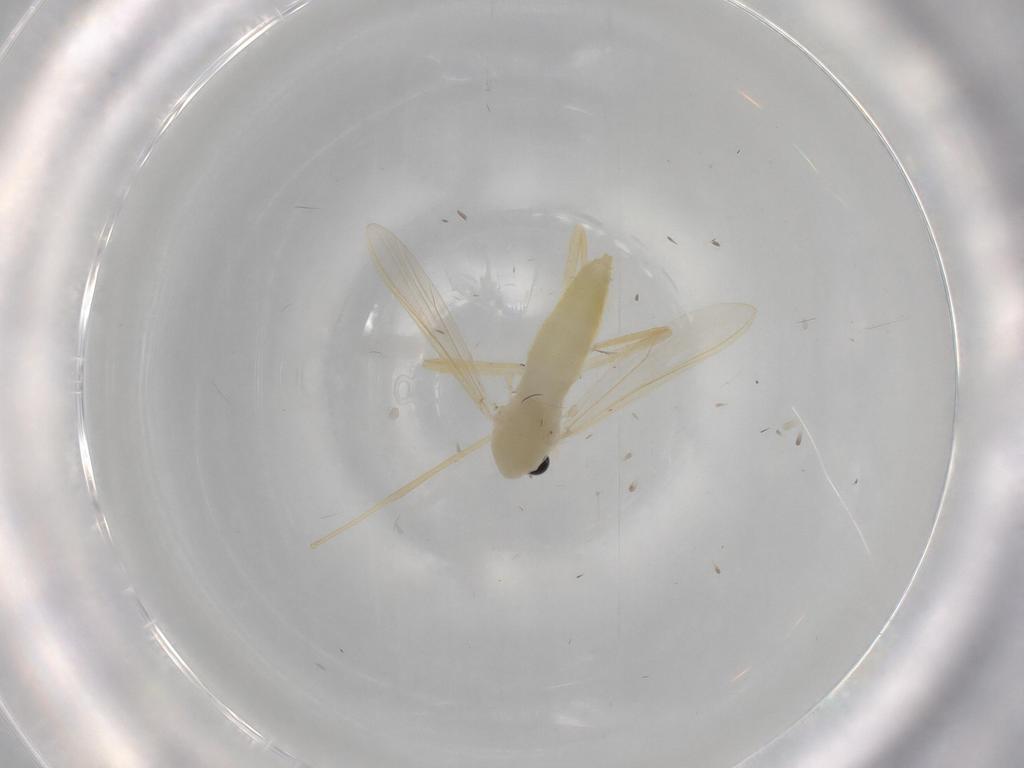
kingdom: Animalia
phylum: Arthropoda
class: Insecta
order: Diptera
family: Chironomidae
